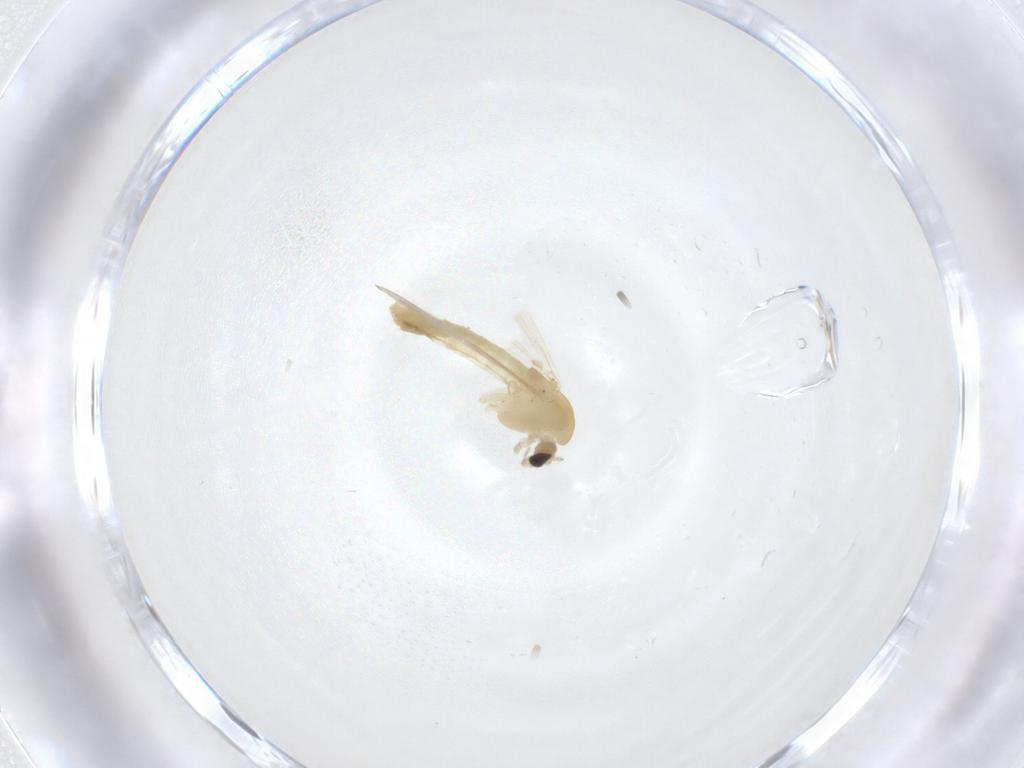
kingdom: Animalia
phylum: Arthropoda
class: Insecta
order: Diptera
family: Chironomidae
